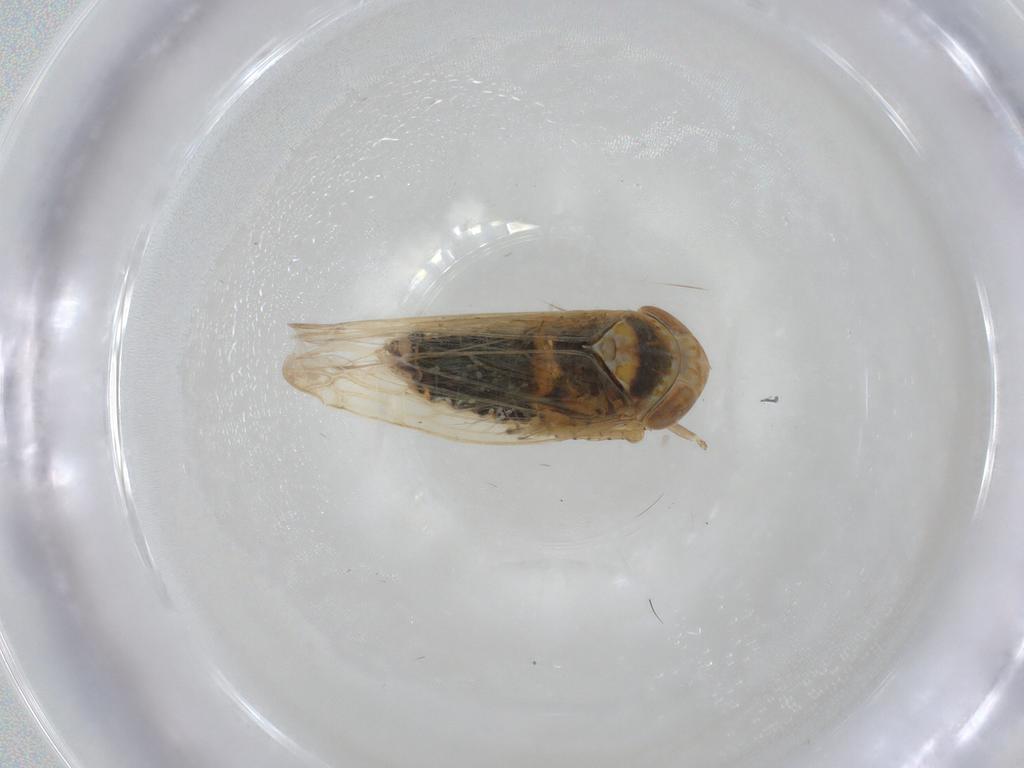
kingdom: Animalia
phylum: Arthropoda
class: Insecta
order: Hemiptera
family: Cicadellidae
